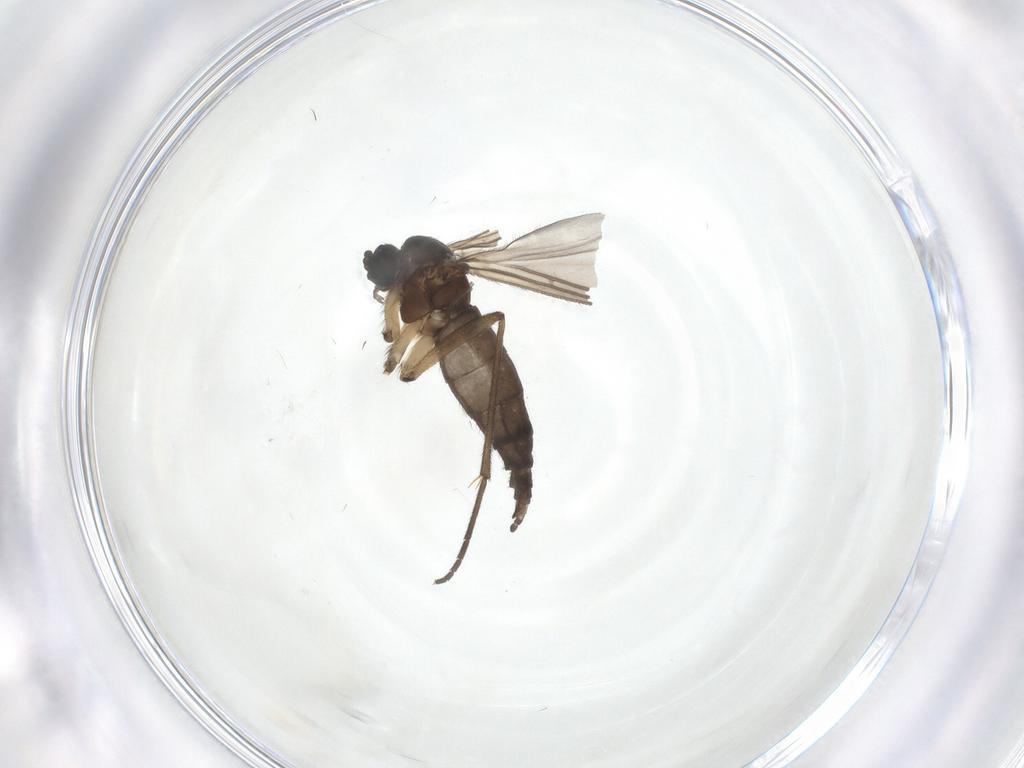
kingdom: Animalia
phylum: Arthropoda
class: Insecta
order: Diptera
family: Sciaridae
